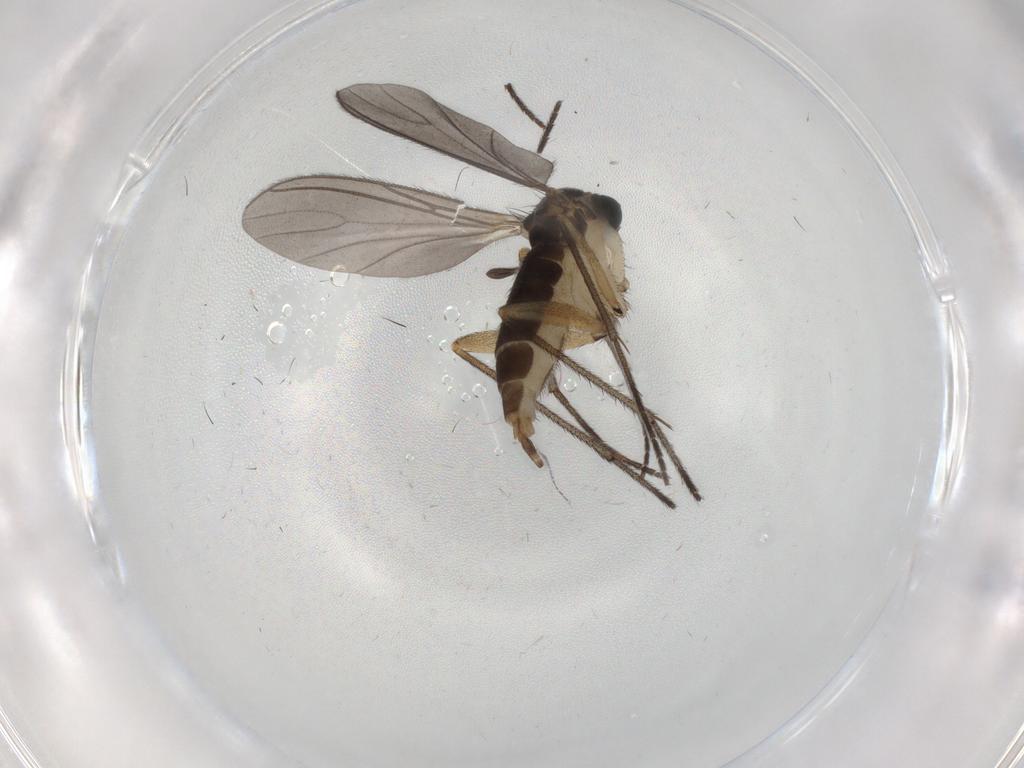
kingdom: Animalia
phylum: Arthropoda
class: Insecta
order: Diptera
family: Sciaridae
